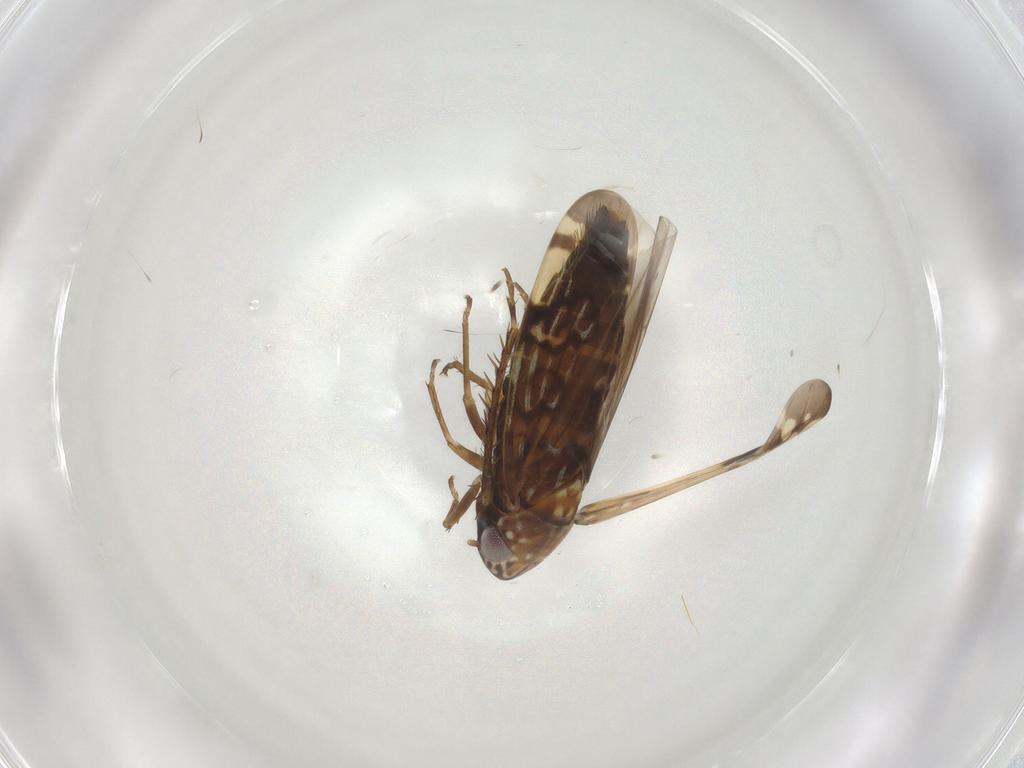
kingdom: Animalia
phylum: Arthropoda
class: Insecta
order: Hemiptera
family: Cicadellidae
